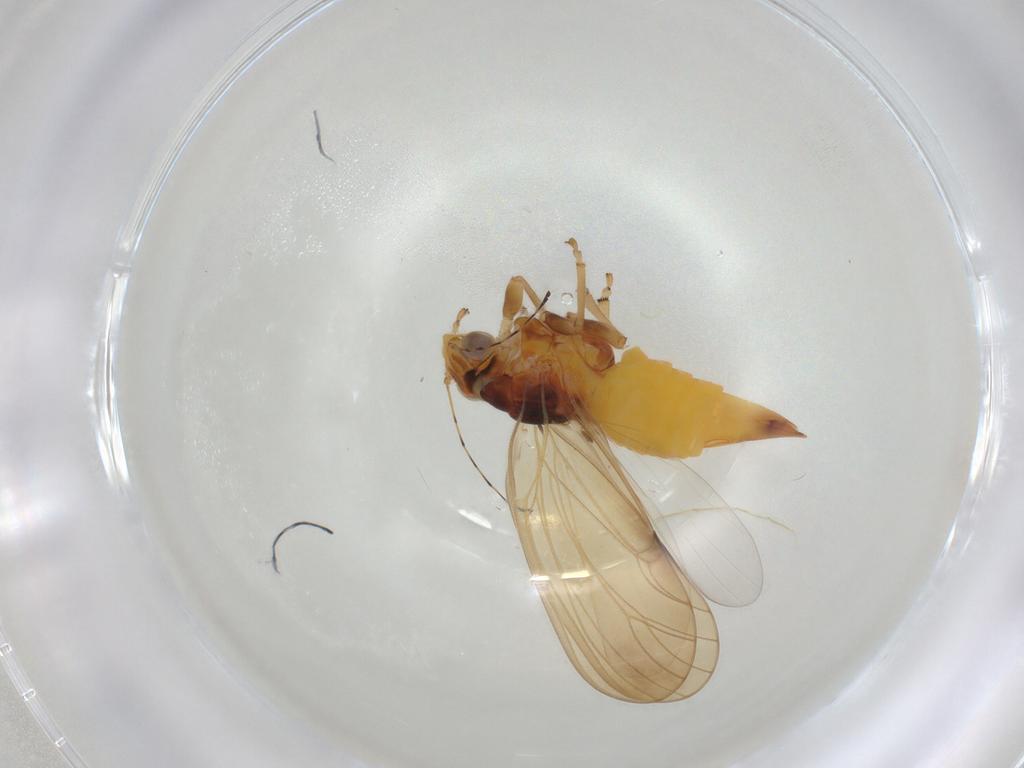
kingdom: Animalia
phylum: Arthropoda
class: Insecta
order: Hemiptera
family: Psylloidea_incertae_sedis
